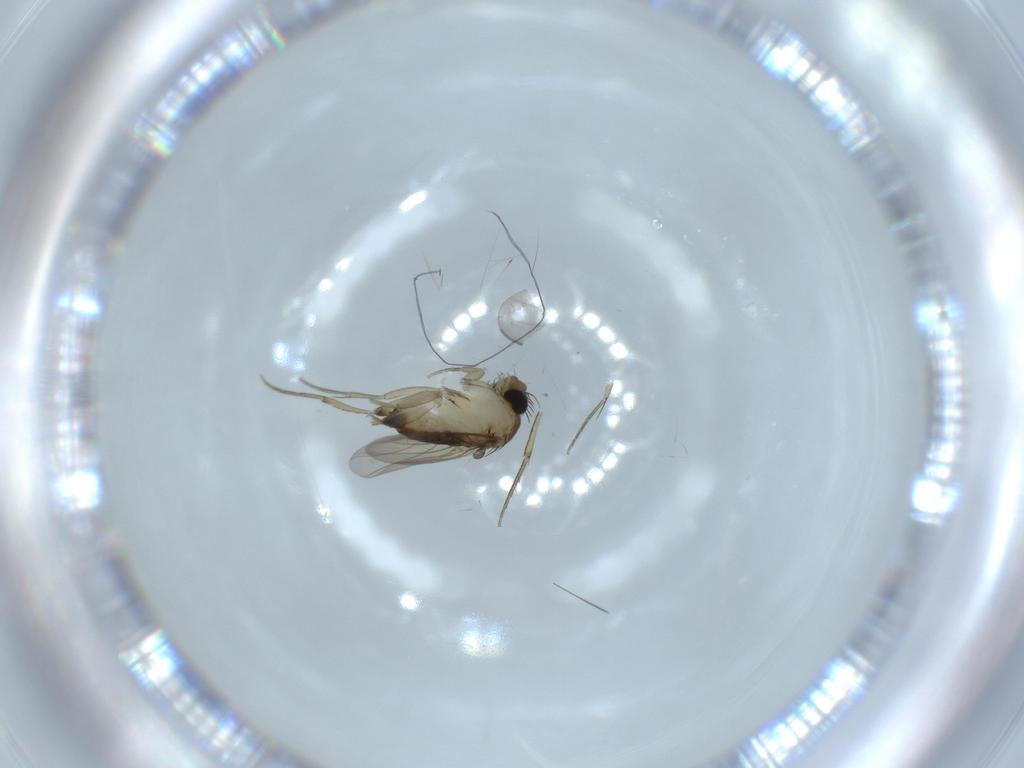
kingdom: Animalia
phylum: Arthropoda
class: Insecta
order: Diptera
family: Phoridae
